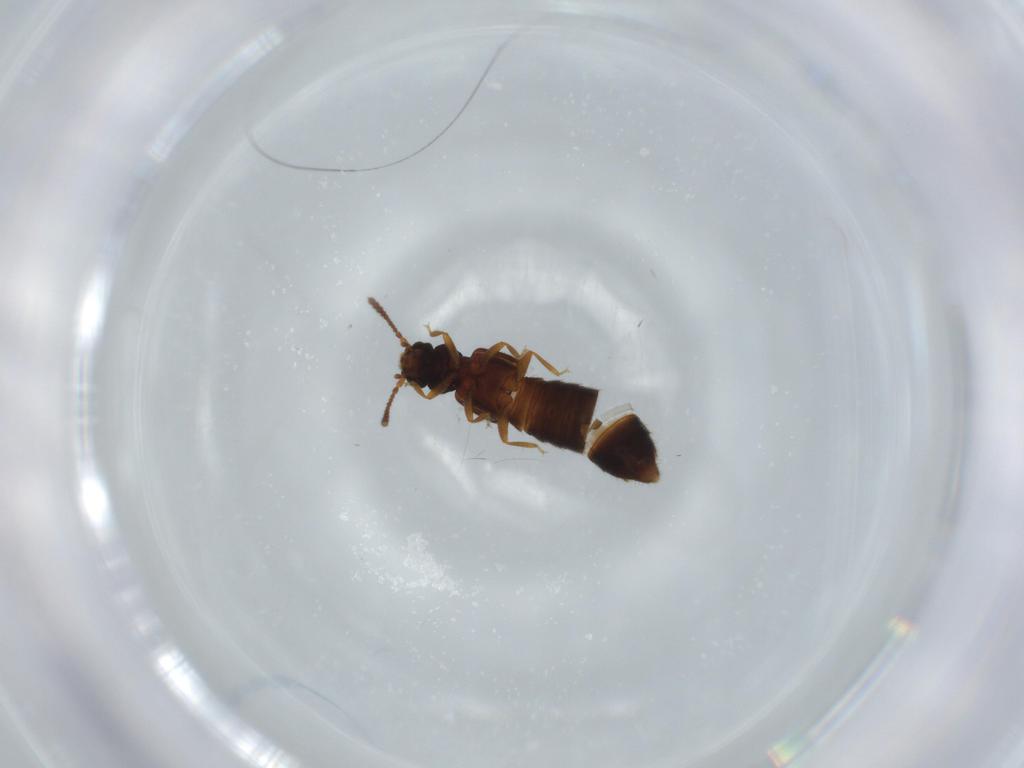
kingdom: Animalia
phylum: Arthropoda
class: Insecta
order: Coleoptera
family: Staphylinidae
